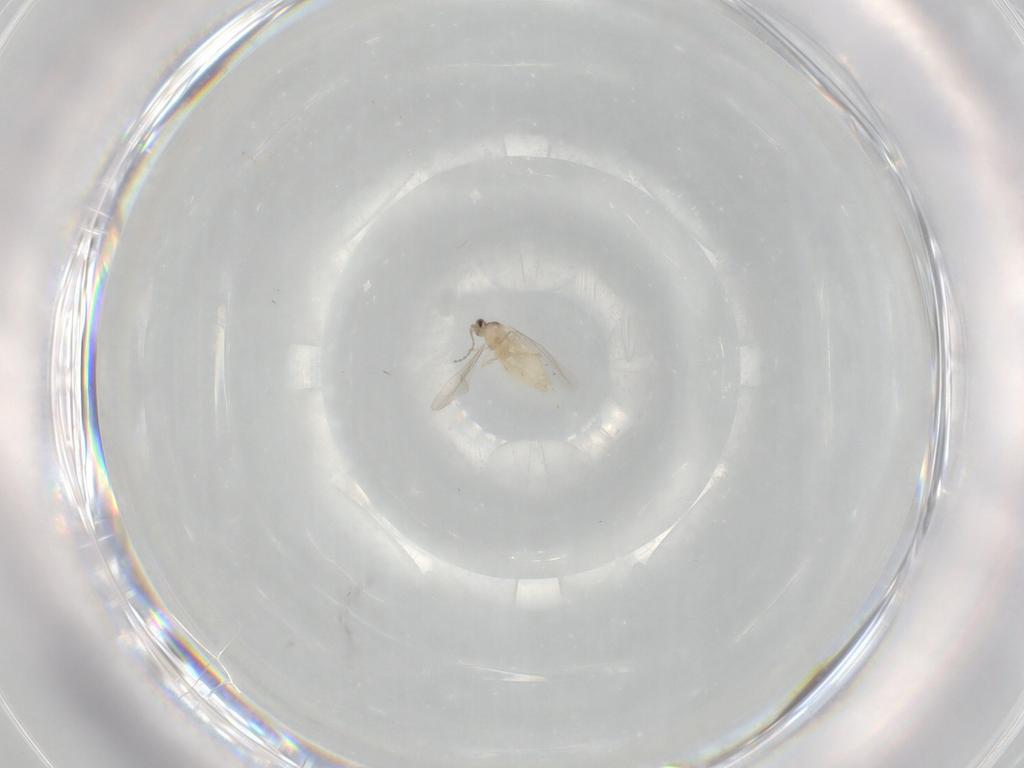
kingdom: Animalia
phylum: Arthropoda
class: Insecta
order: Diptera
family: Cecidomyiidae
